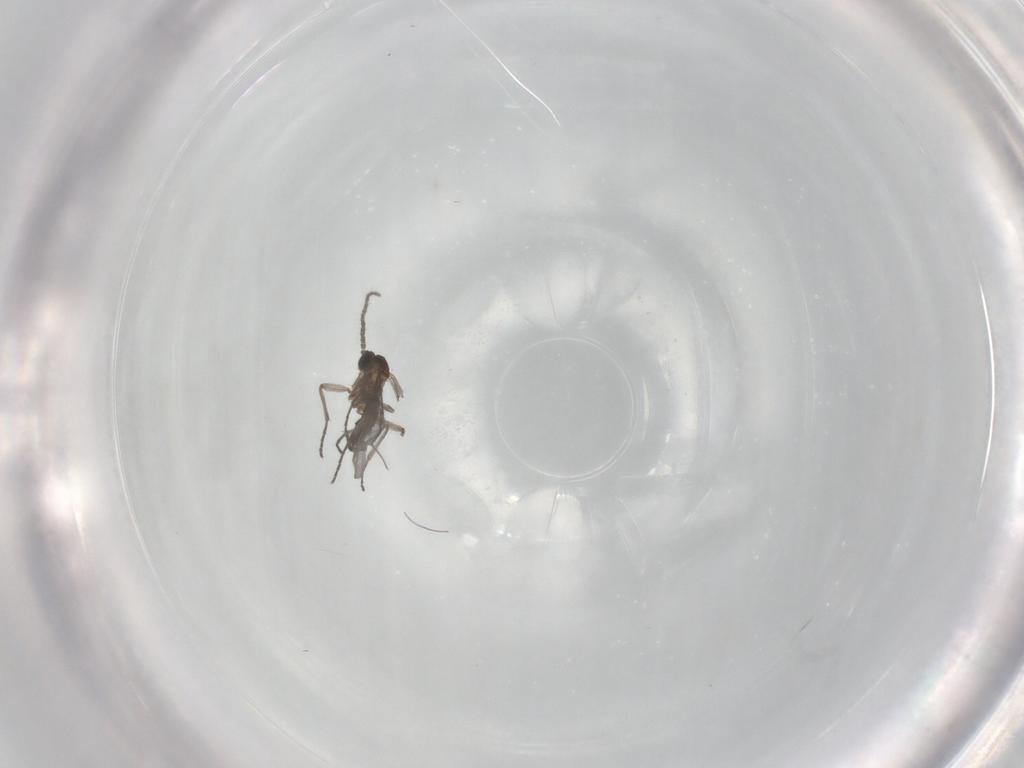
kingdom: Animalia
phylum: Arthropoda
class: Insecta
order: Diptera
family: Sciaridae
